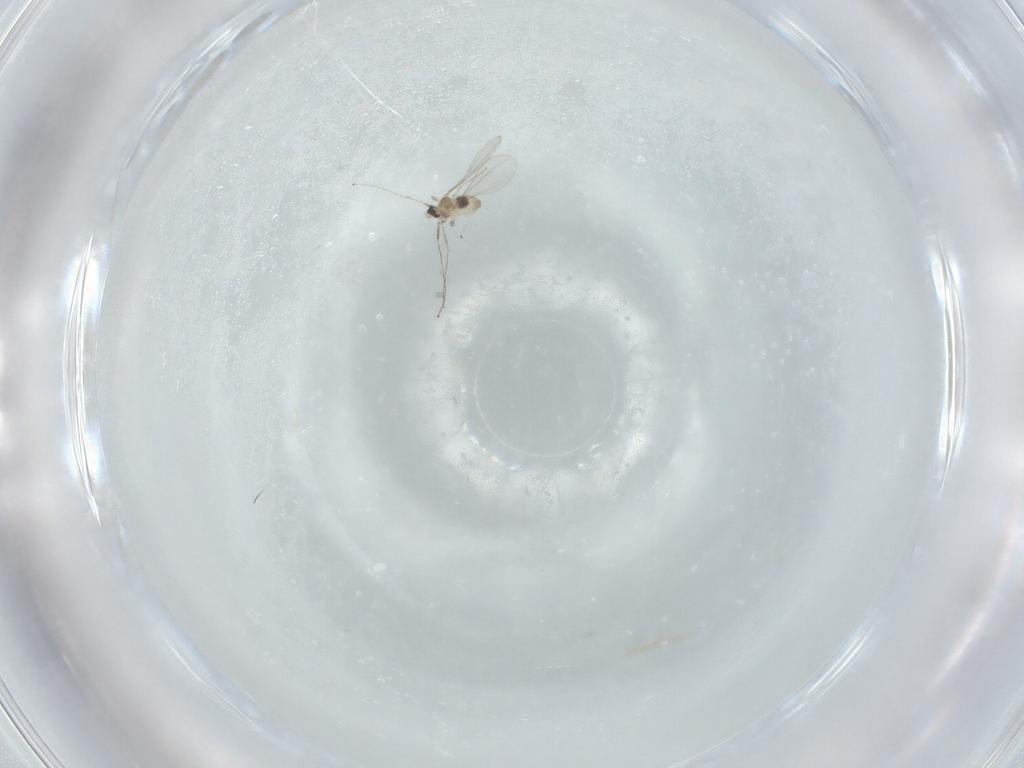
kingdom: Animalia
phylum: Arthropoda
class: Insecta
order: Diptera
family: Cecidomyiidae
